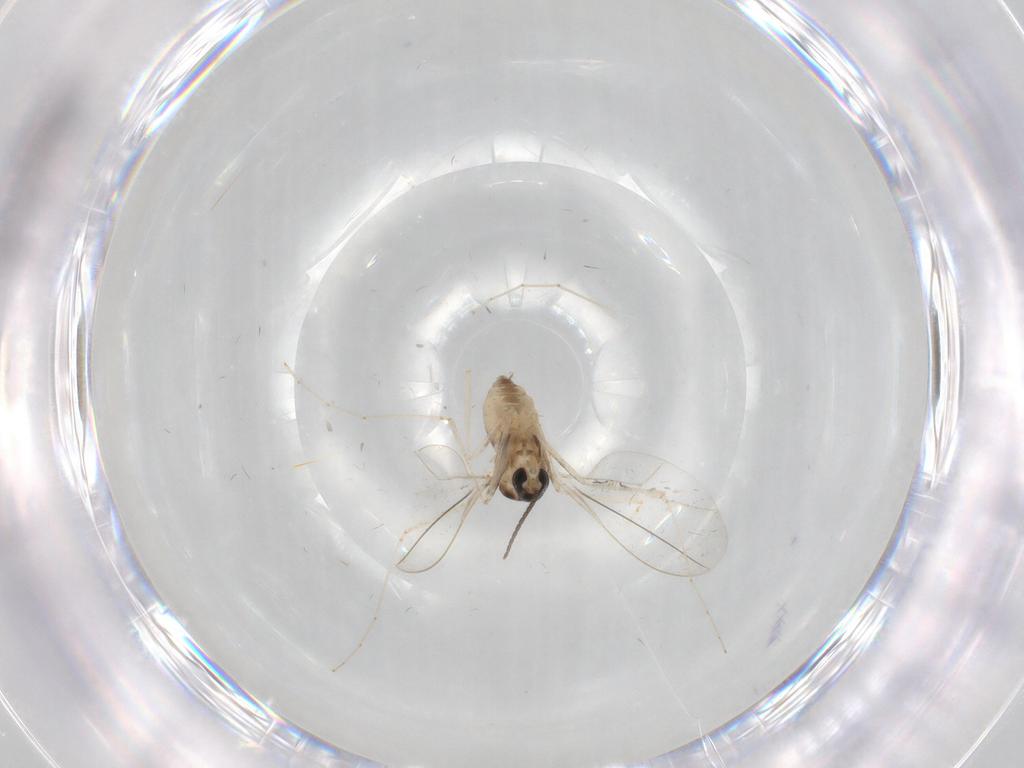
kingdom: Animalia
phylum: Arthropoda
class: Insecta
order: Diptera
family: Cecidomyiidae
